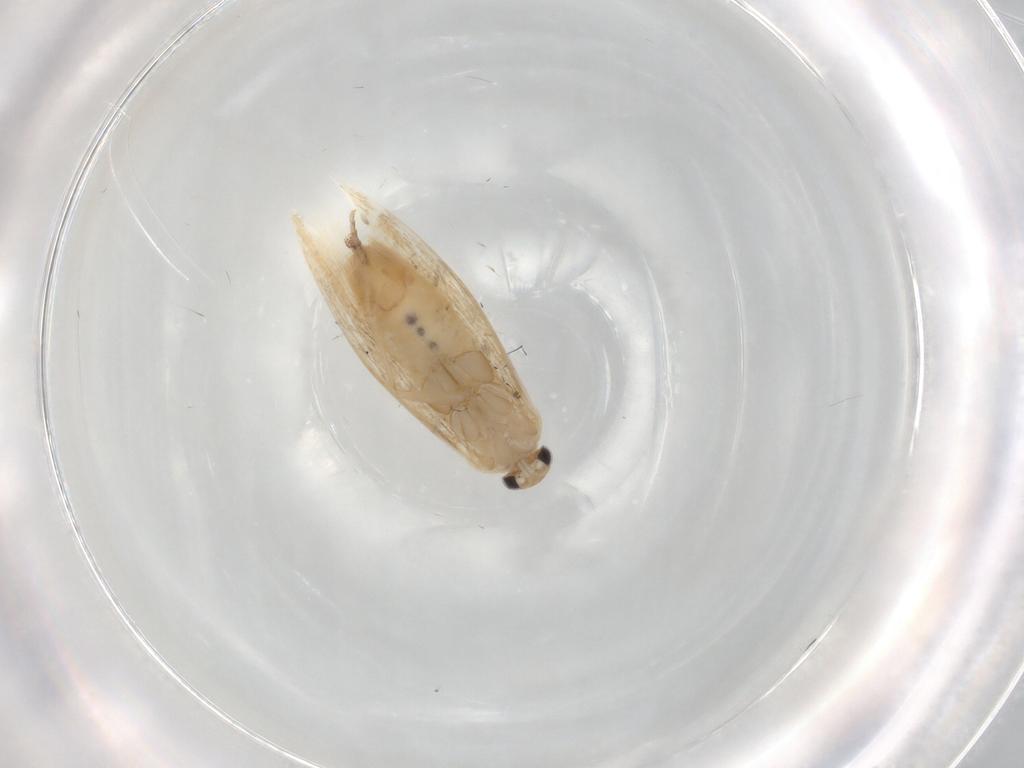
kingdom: Animalia
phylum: Arthropoda
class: Insecta
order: Lepidoptera
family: Bucculatricidae
